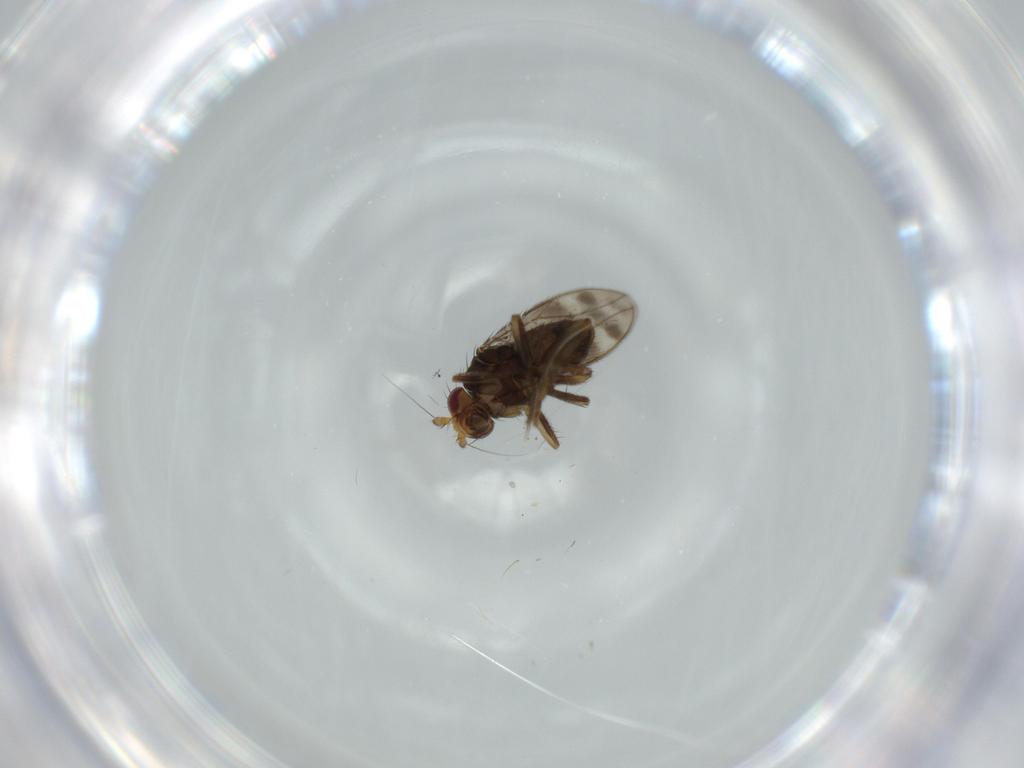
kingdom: Animalia
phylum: Arthropoda
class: Insecta
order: Diptera
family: Sphaeroceridae
